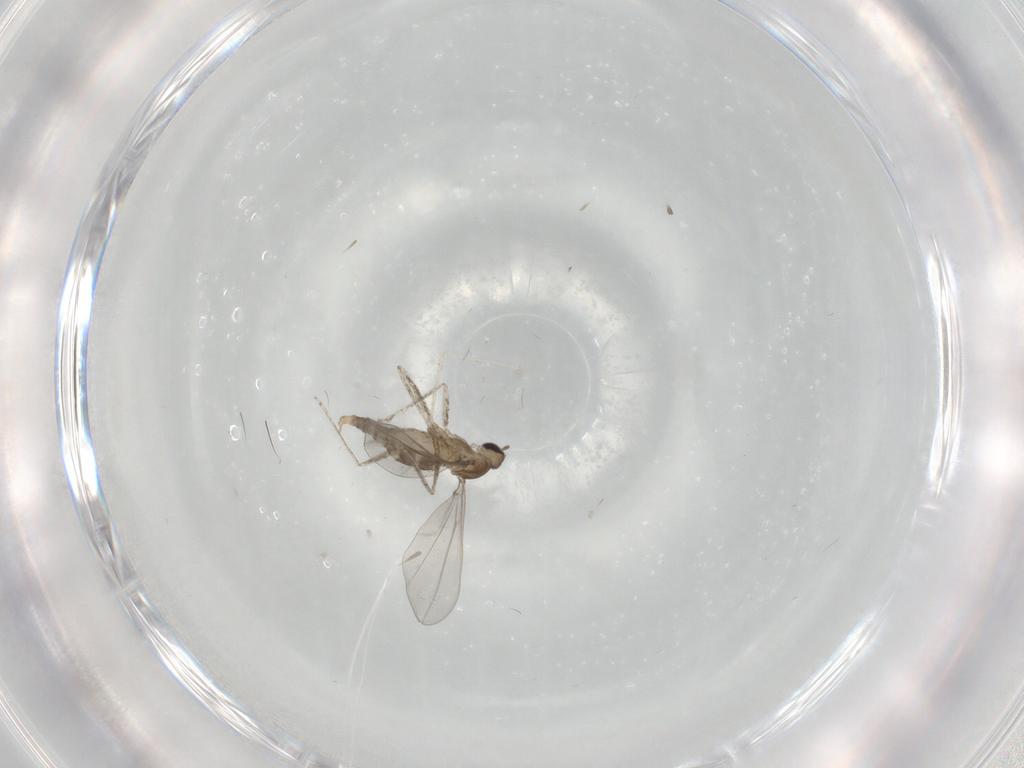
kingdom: Animalia
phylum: Arthropoda
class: Insecta
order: Diptera
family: Cecidomyiidae
